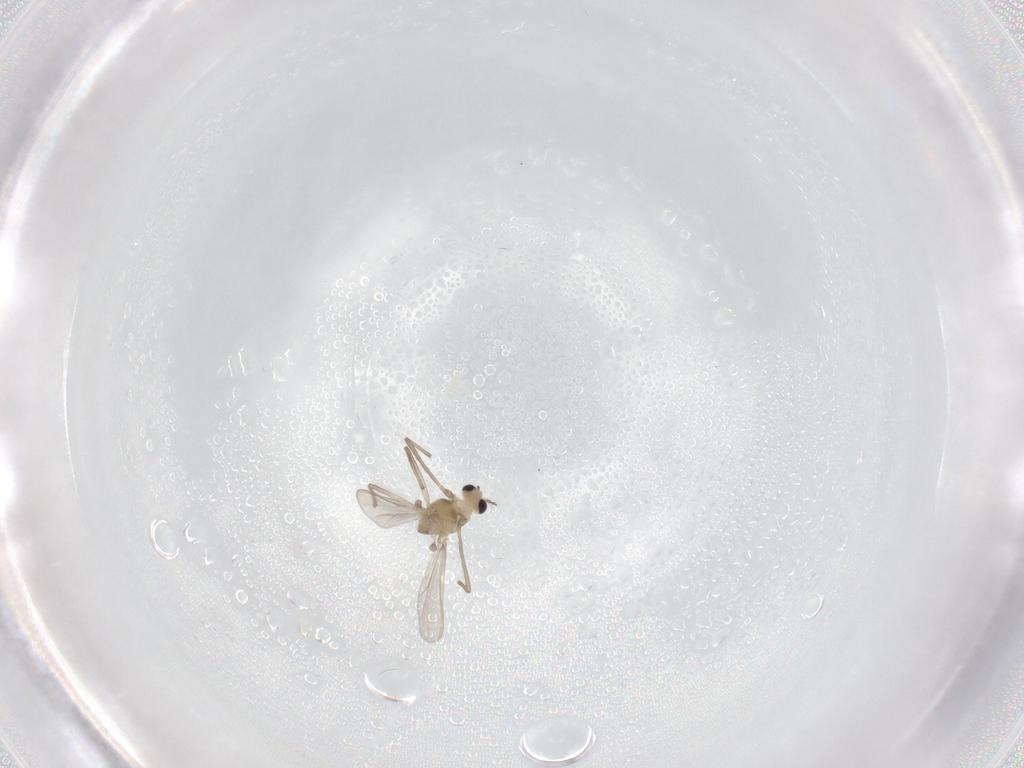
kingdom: Animalia
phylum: Arthropoda
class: Insecta
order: Diptera
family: Chironomidae
